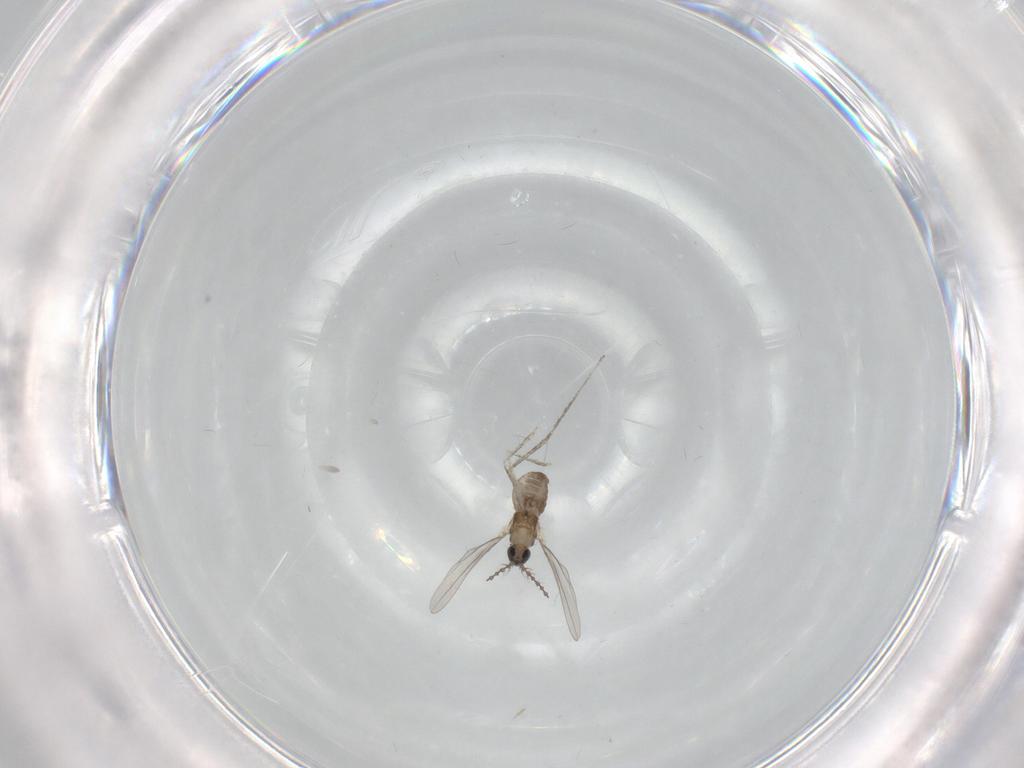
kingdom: Animalia
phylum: Arthropoda
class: Insecta
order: Diptera
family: Cecidomyiidae
